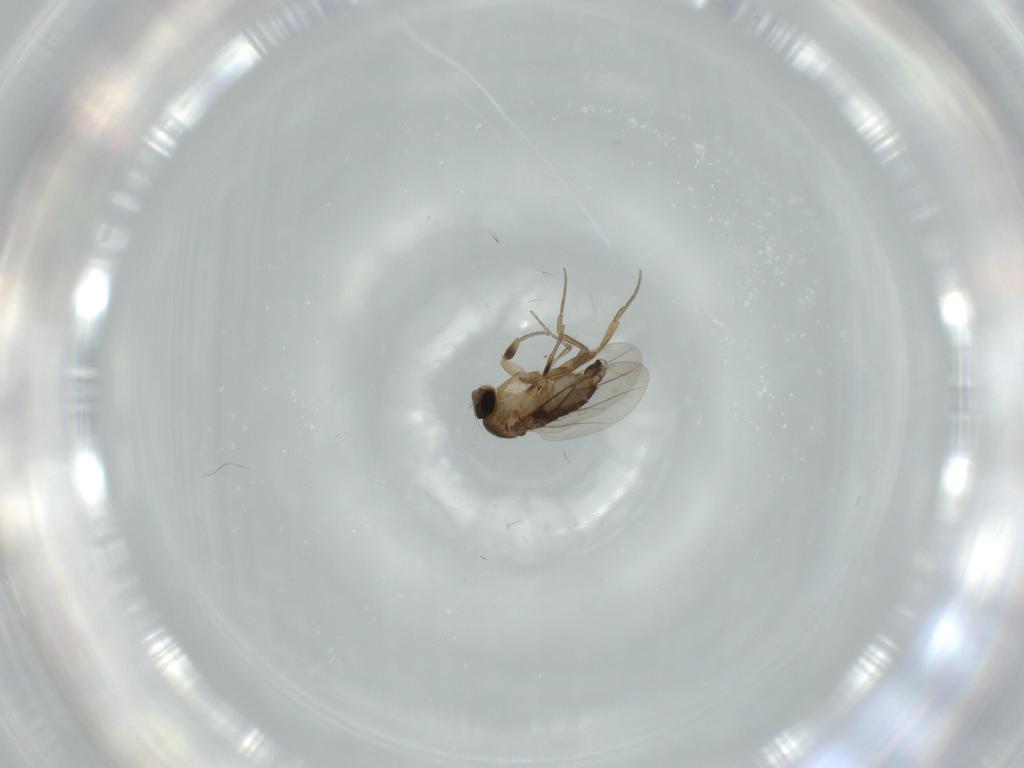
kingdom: Animalia
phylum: Arthropoda
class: Insecta
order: Diptera
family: Phoridae
